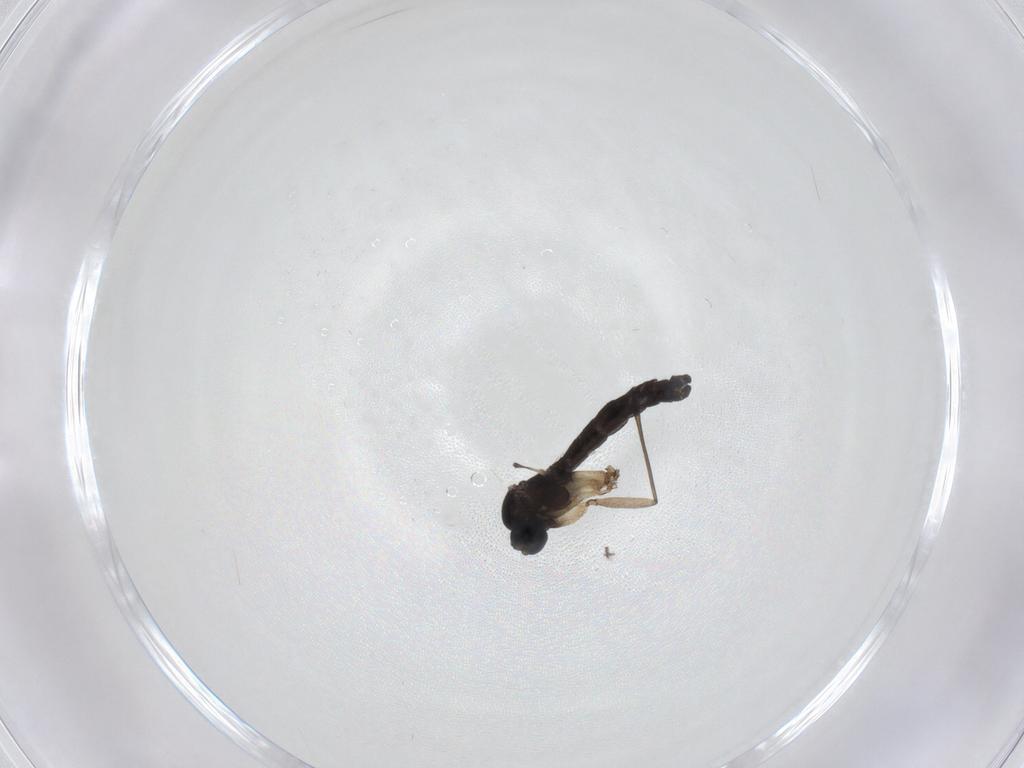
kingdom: Animalia
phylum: Arthropoda
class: Insecta
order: Diptera
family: Sciaridae
